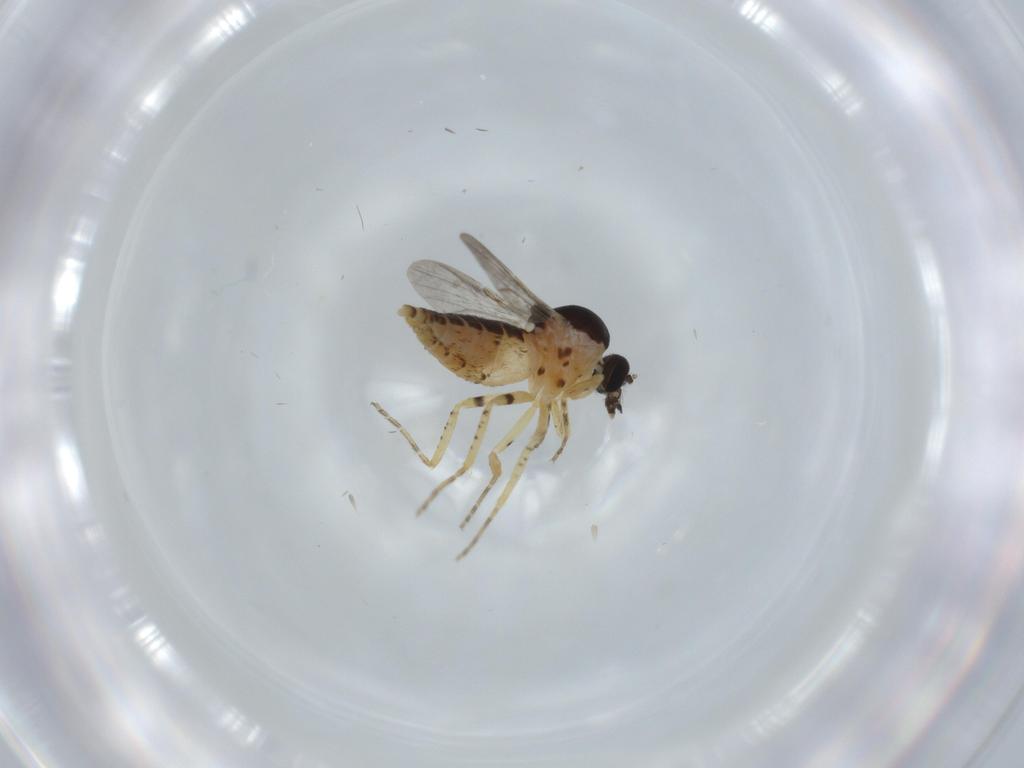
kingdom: Animalia
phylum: Arthropoda
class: Insecta
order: Diptera
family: Ceratopogonidae
